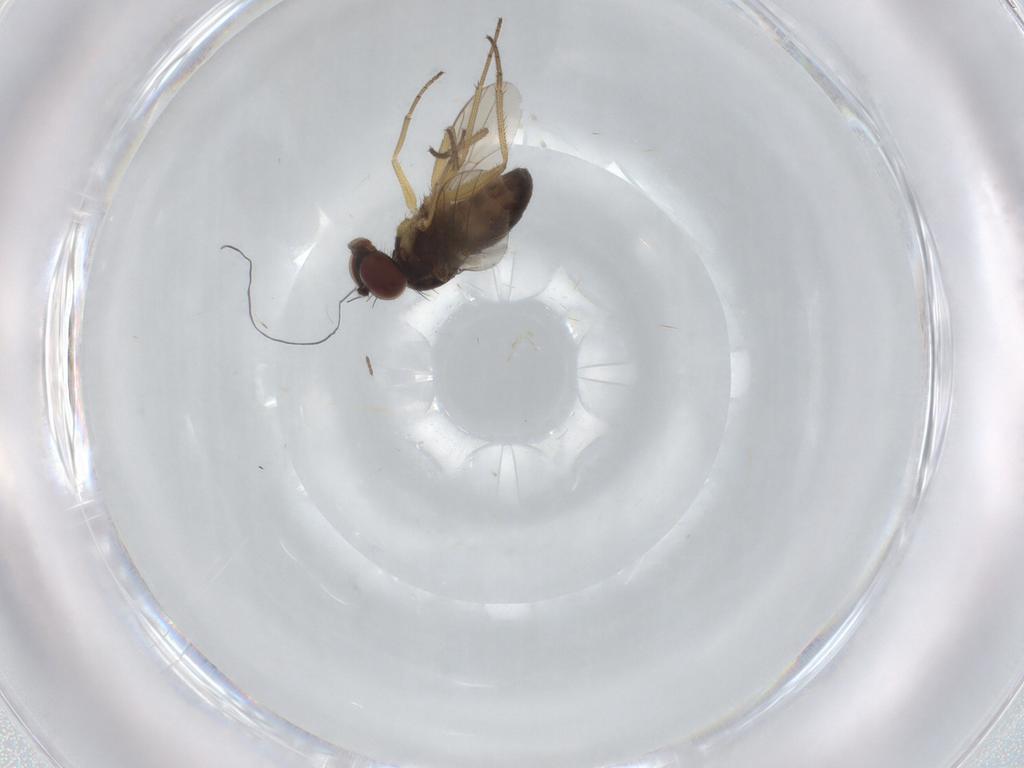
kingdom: Animalia
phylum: Arthropoda
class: Insecta
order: Diptera
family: Dolichopodidae
